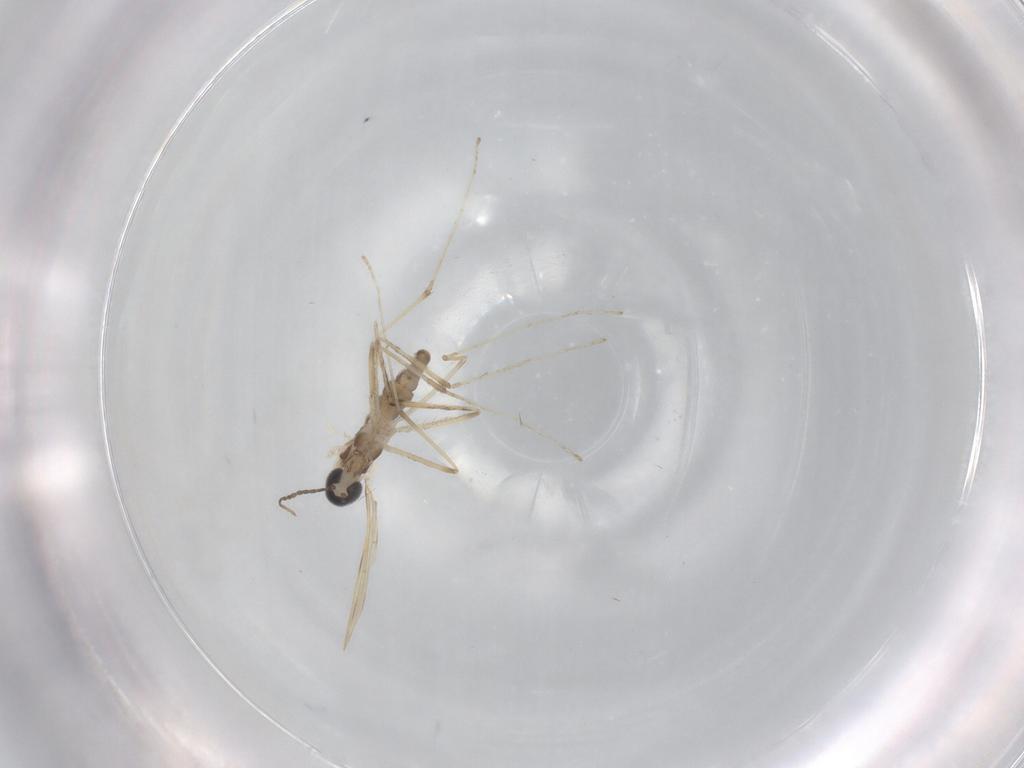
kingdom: Animalia
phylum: Arthropoda
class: Insecta
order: Diptera
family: Cecidomyiidae
